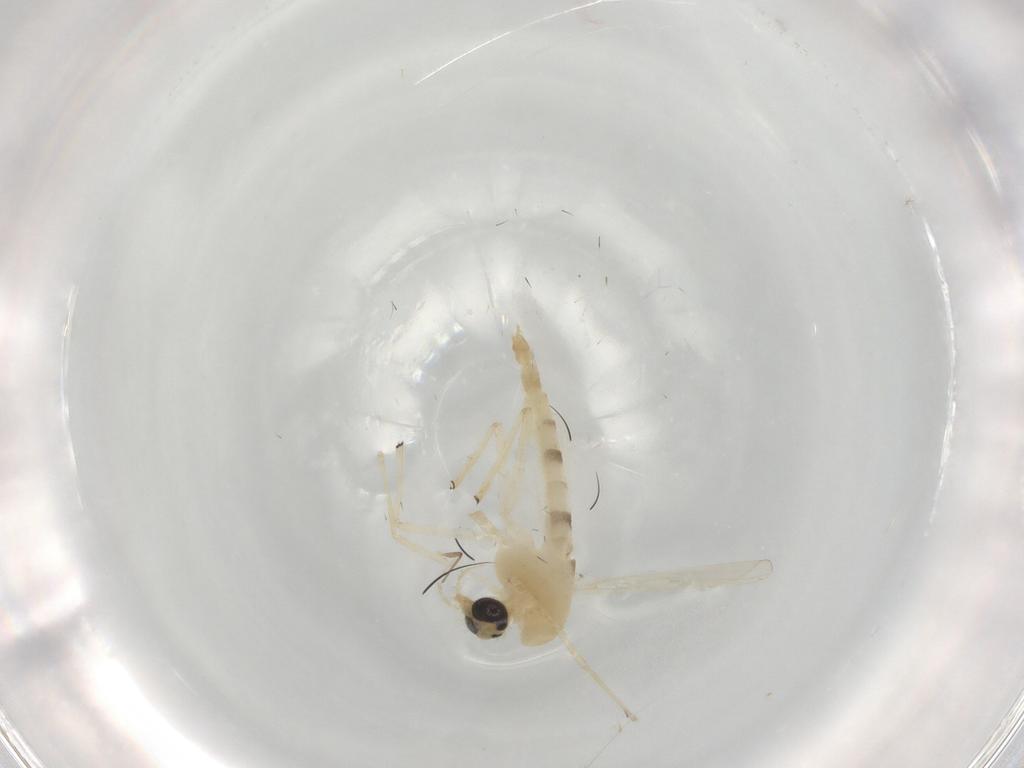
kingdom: Animalia
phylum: Arthropoda
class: Insecta
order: Diptera
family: Chironomidae
